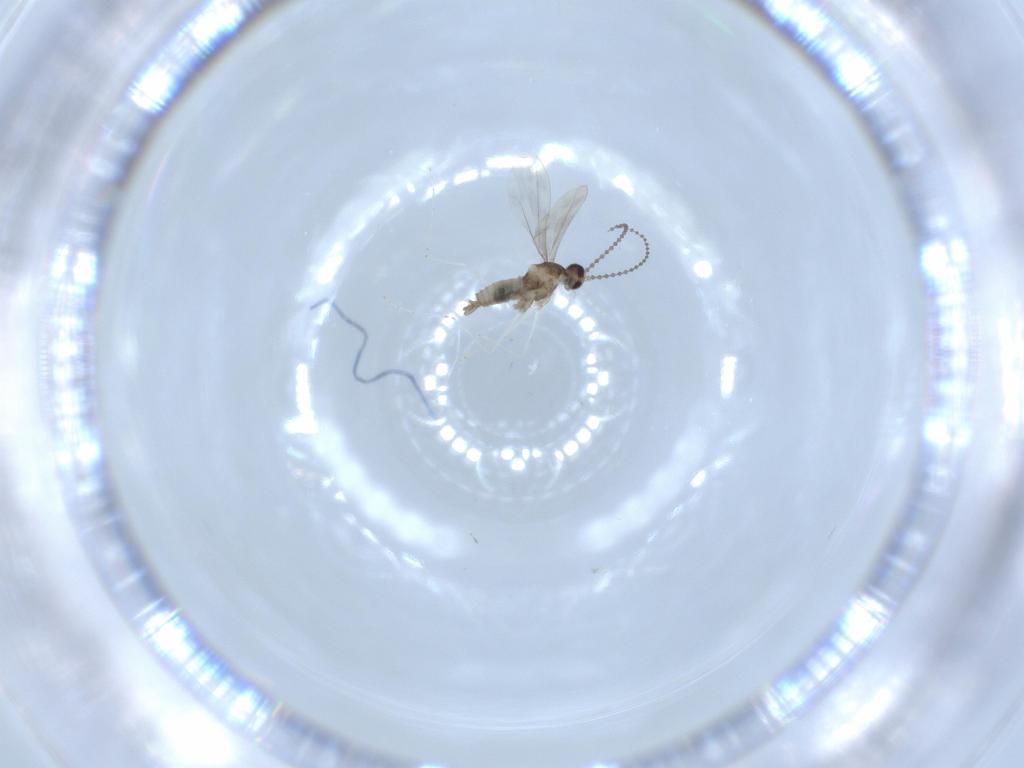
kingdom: Animalia
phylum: Arthropoda
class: Insecta
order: Diptera
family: Cecidomyiidae
